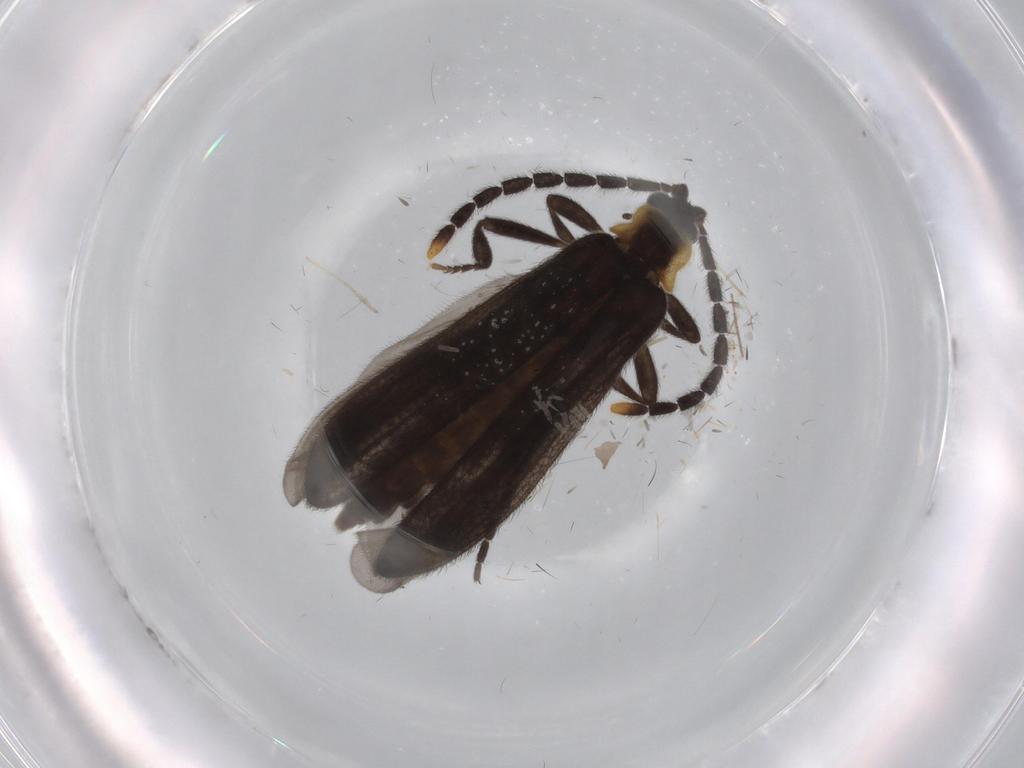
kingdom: Animalia
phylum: Arthropoda
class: Insecta
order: Coleoptera
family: Lycidae
